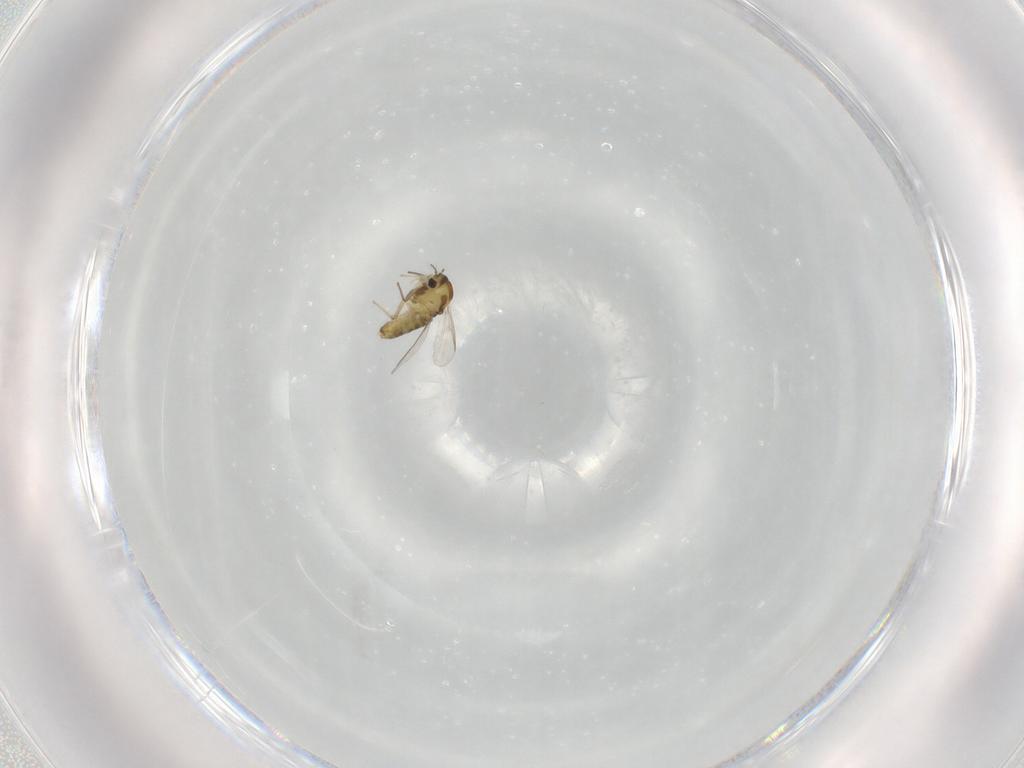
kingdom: Animalia
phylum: Arthropoda
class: Insecta
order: Diptera
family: Chironomidae
